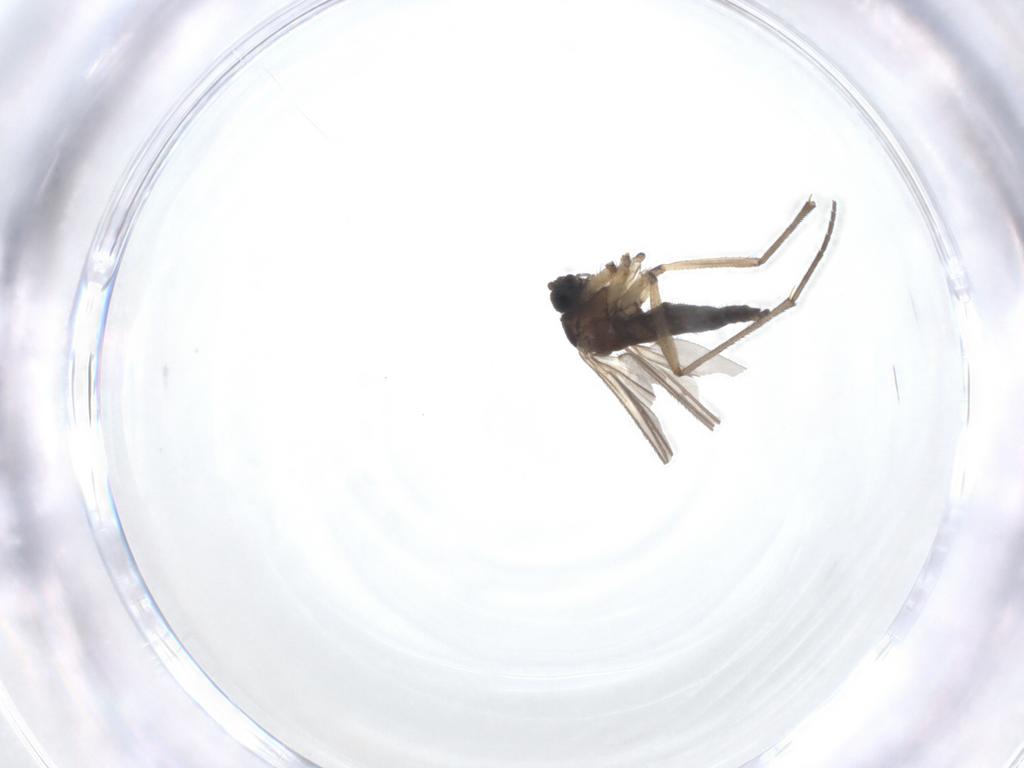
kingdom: Animalia
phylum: Arthropoda
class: Insecta
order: Diptera
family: Sciaridae
